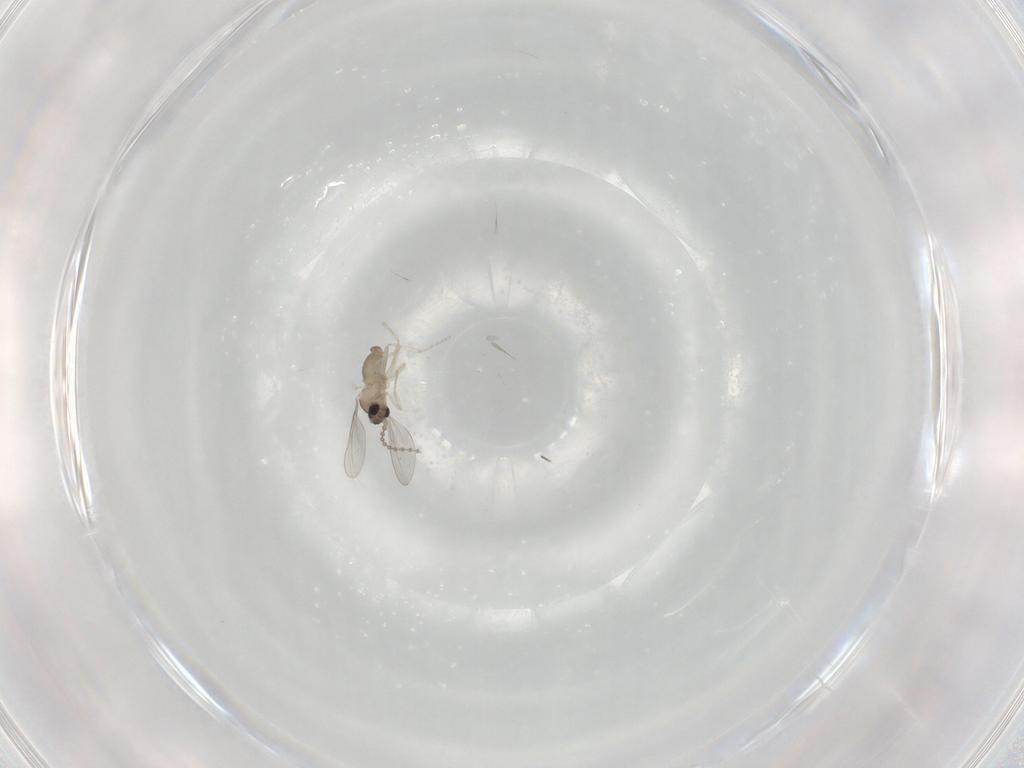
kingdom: Animalia
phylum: Arthropoda
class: Insecta
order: Diptera
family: Cecidomyiidae
